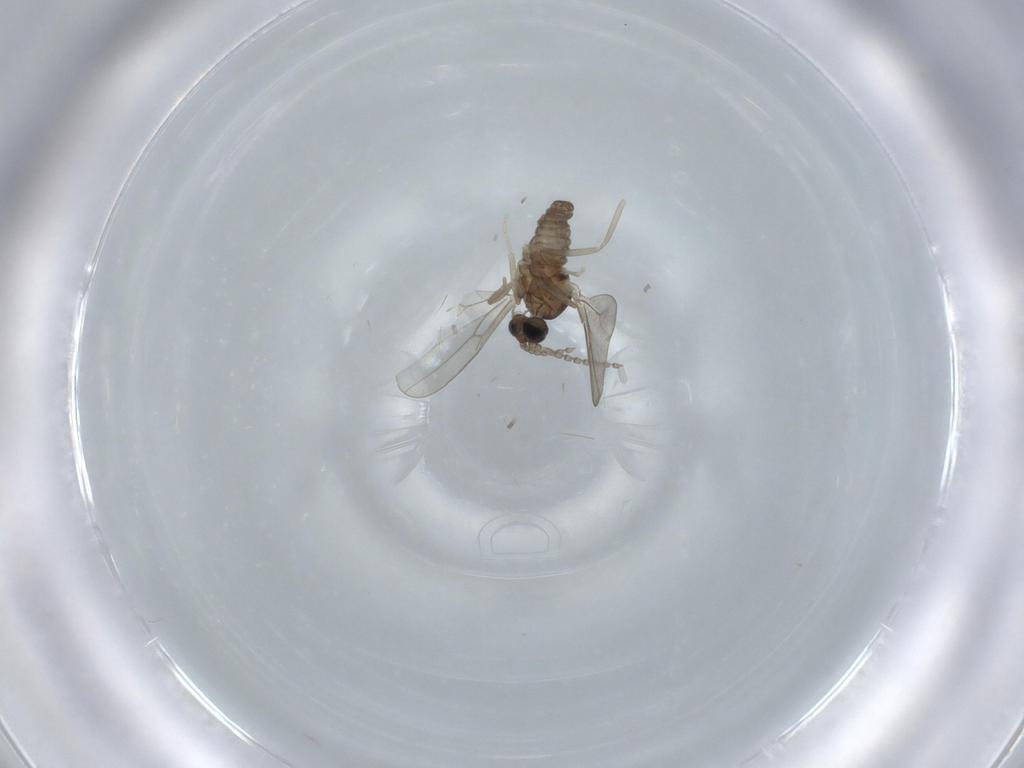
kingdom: Animalia
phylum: Arthropoda
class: Insecta
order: Diptera
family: Cecidomyiidae
